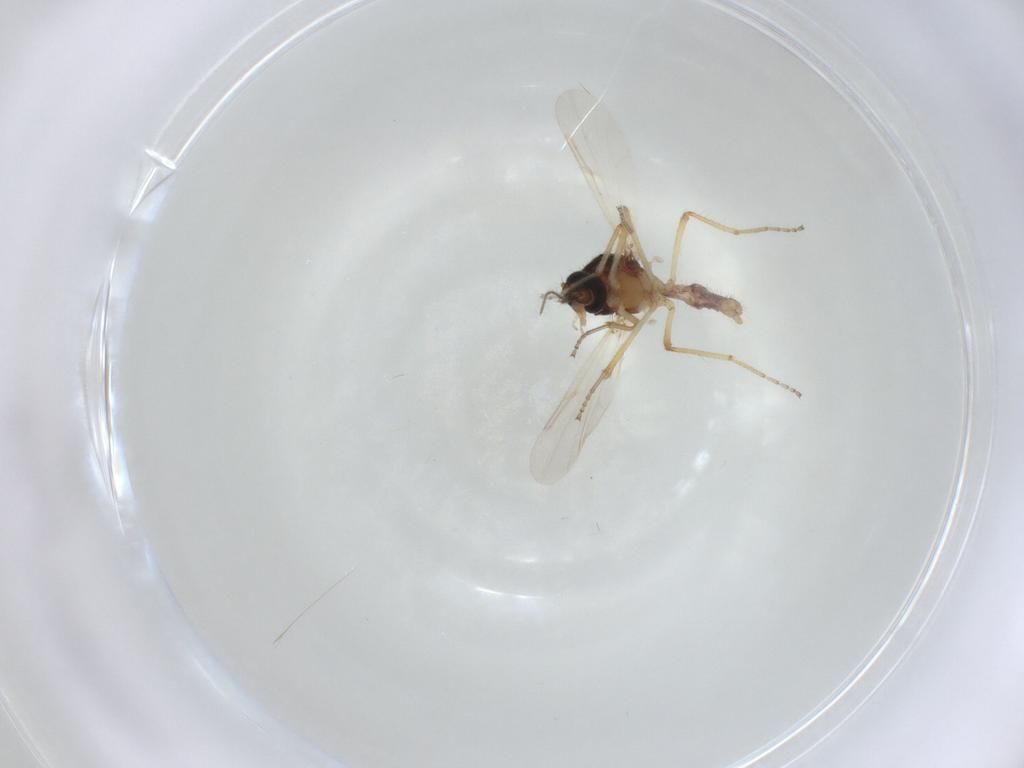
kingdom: Animalia
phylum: Arthropoda
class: Insecta
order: Diptera
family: Ceratopogonidae
